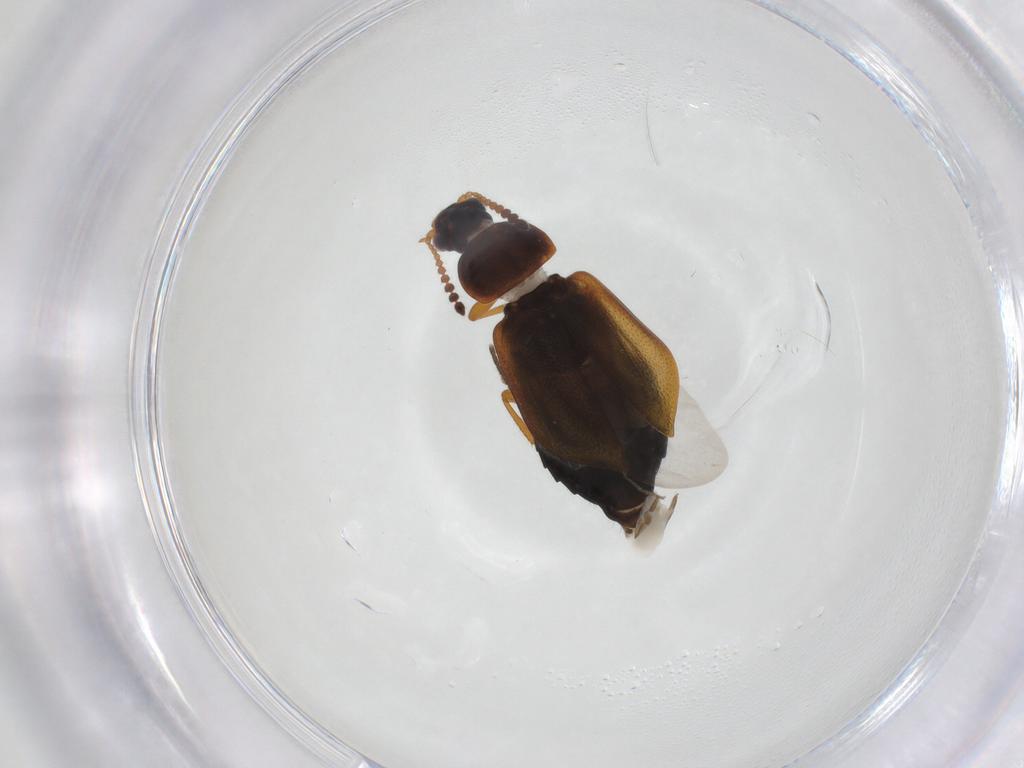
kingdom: Animalia
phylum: Arthropoda
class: Insecta
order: Coleoptera
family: Staphylinidae
